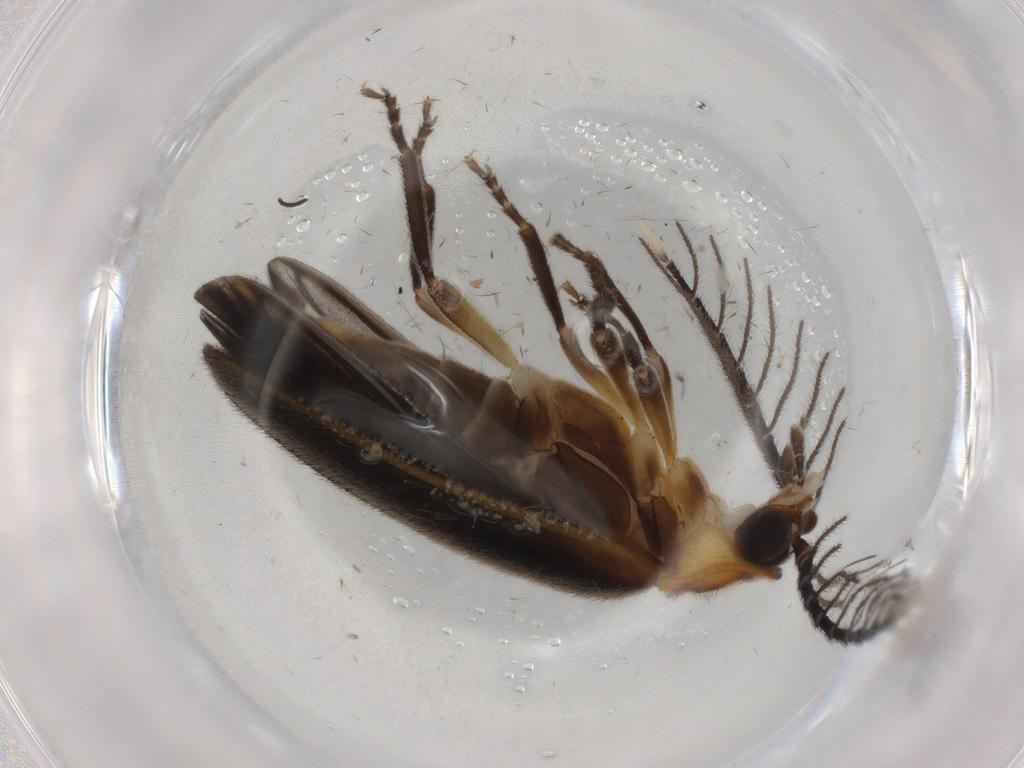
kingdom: Animalia
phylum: Arthropoda
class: Insecta
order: Coleoptera
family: Lampyridae
